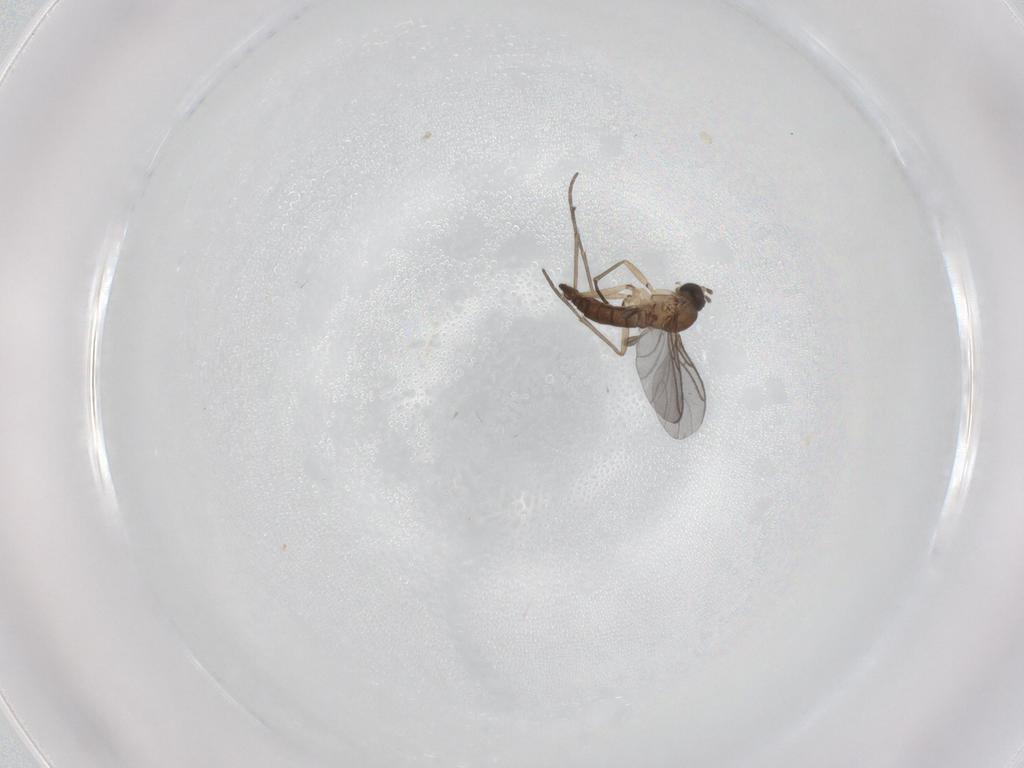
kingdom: Animalia
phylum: Arthropoda
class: Insecta
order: Diptera
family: Sciaridae
